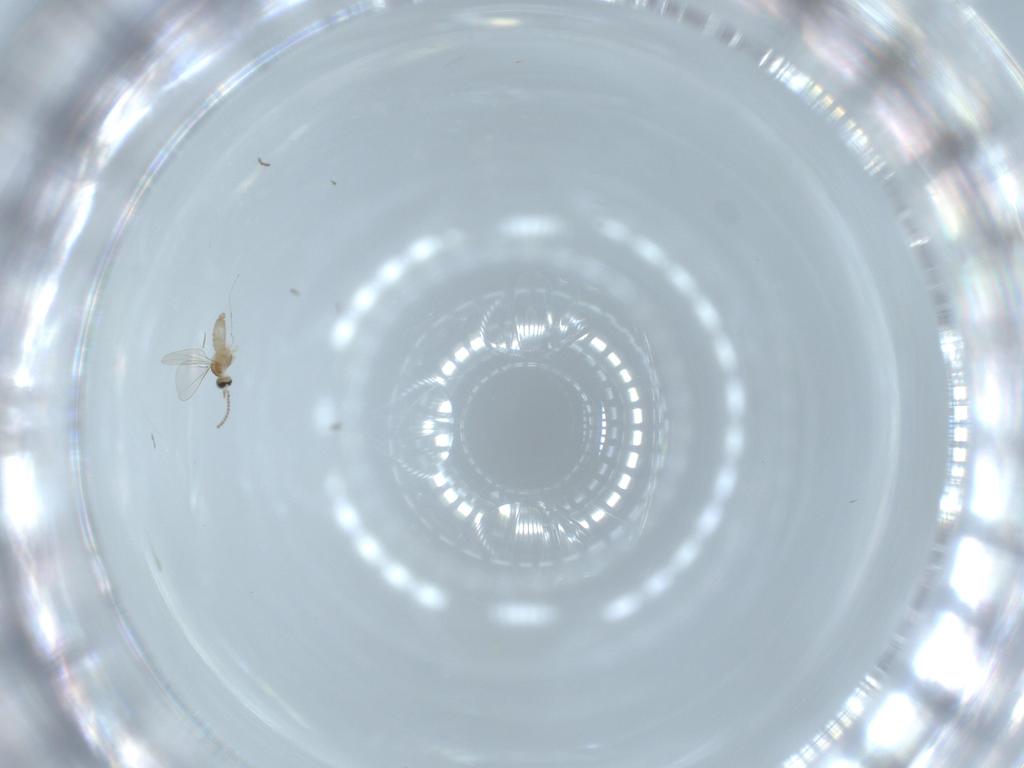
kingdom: Animalia
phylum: Arthropoda
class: Insecta
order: Diptera
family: Cecidomyiidae
